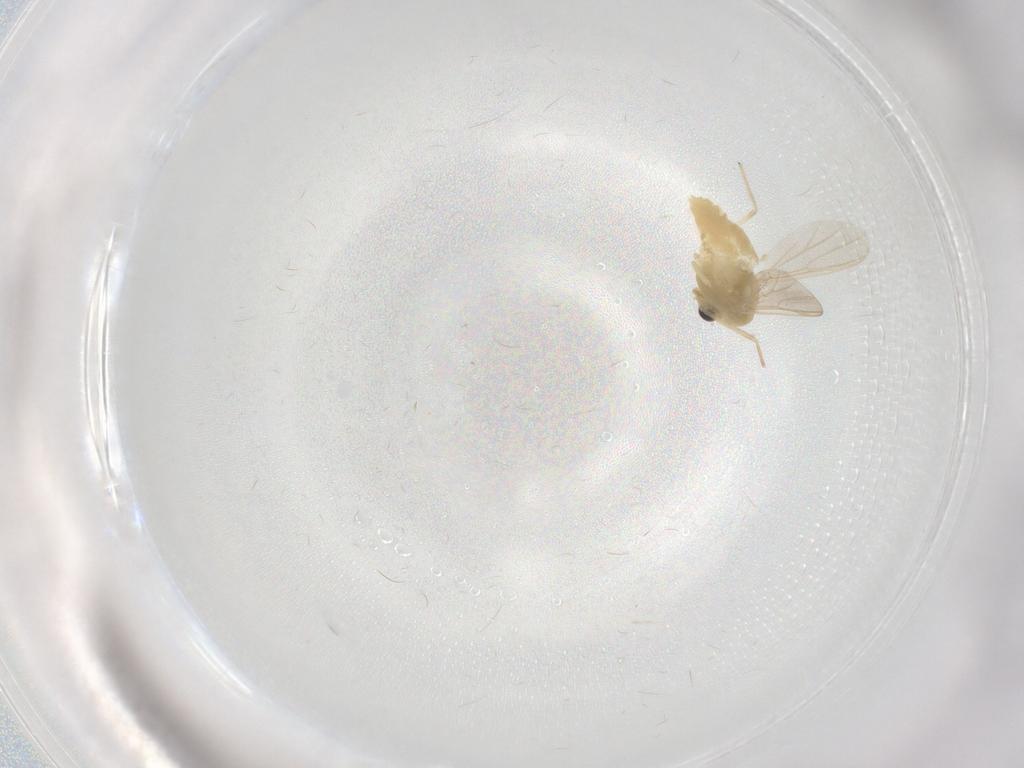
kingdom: Animalia
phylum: Arthropoda
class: Insecta
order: Diptera
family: Chironomidae
